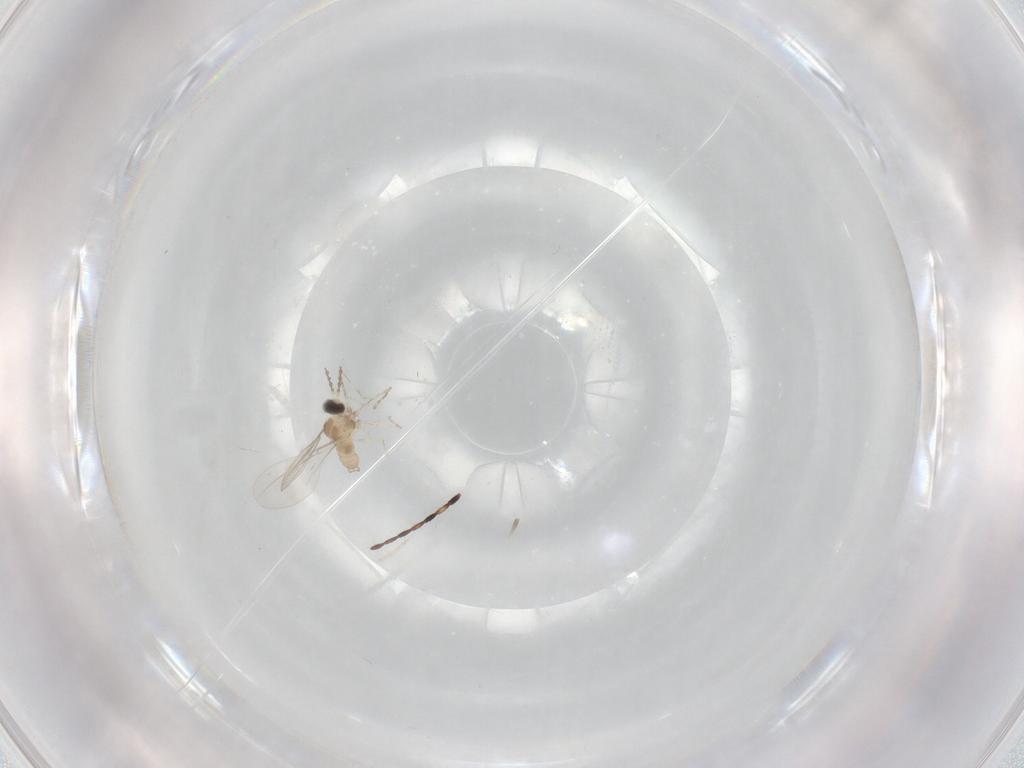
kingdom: Animalia
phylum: Arthropoda
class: Insecta
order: Diptera
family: Cecidomyiidae
